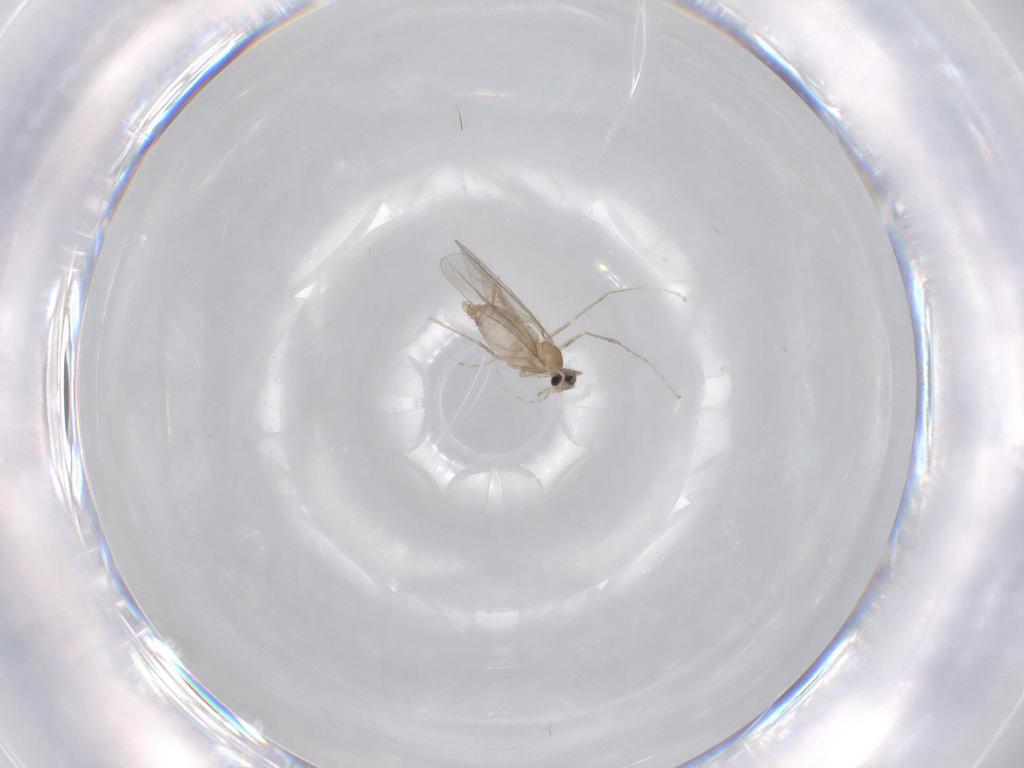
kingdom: Animalia
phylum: Arthropoda
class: Insecta
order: Diptera
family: Cecidomyiidae
